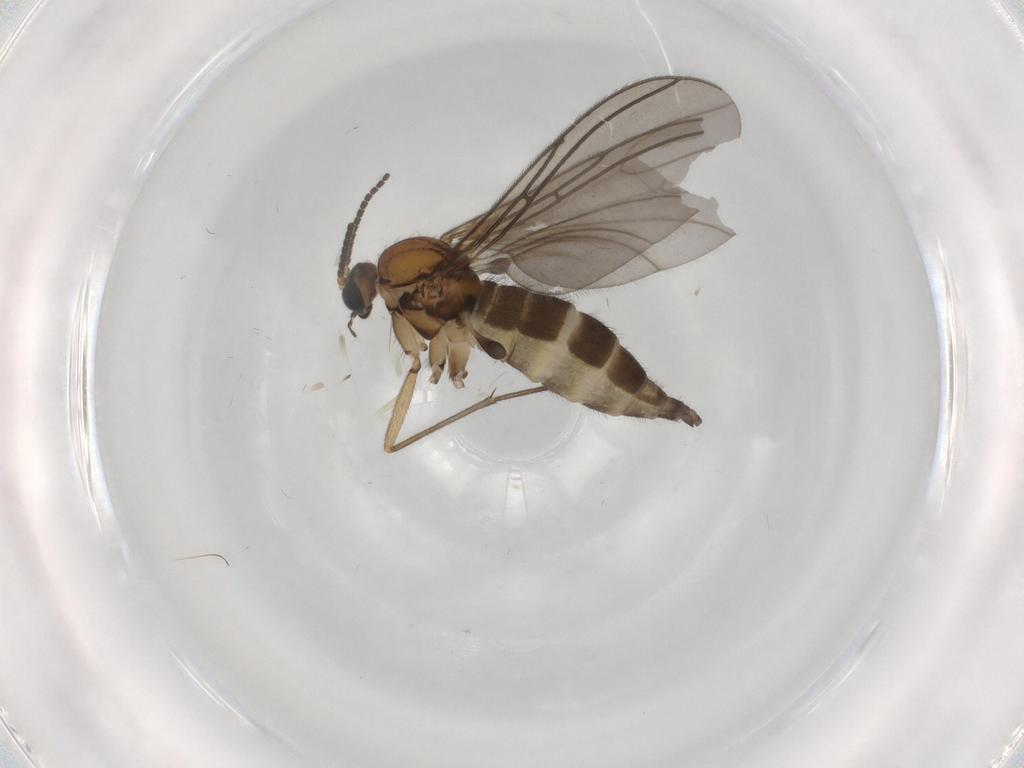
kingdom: Animalia
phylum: Arthropoda
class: Insecta
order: Diptera
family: Sciaridae
